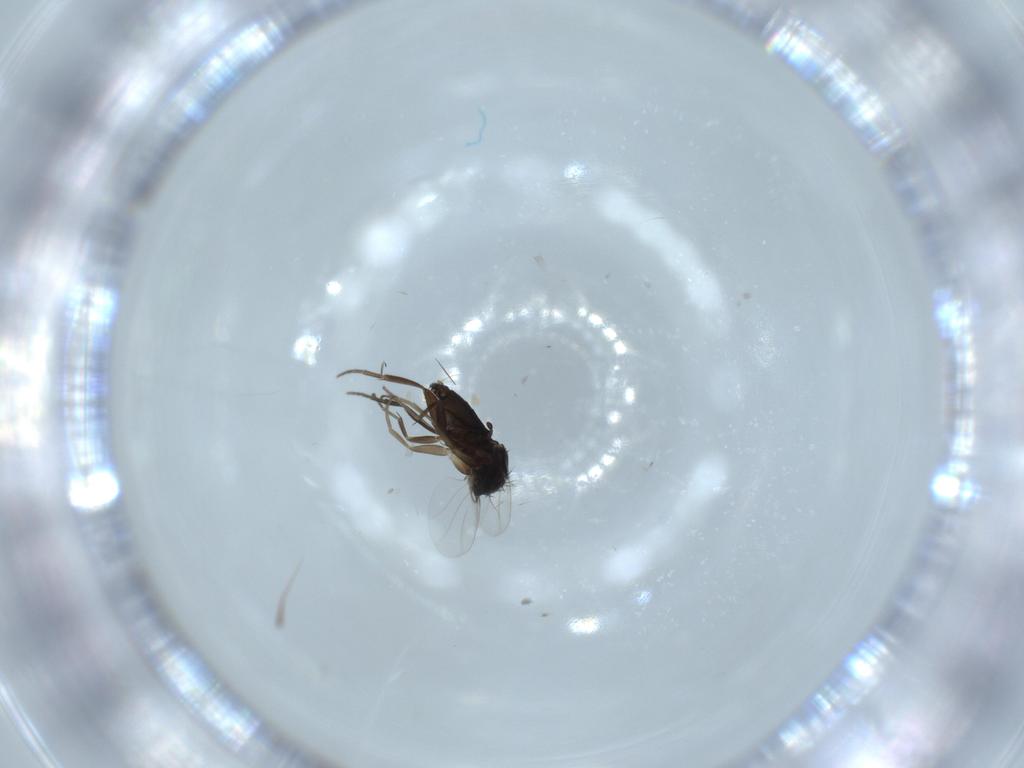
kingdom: Animalia
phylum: Arthropoda
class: Insecta
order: Diptera
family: Phoridae
